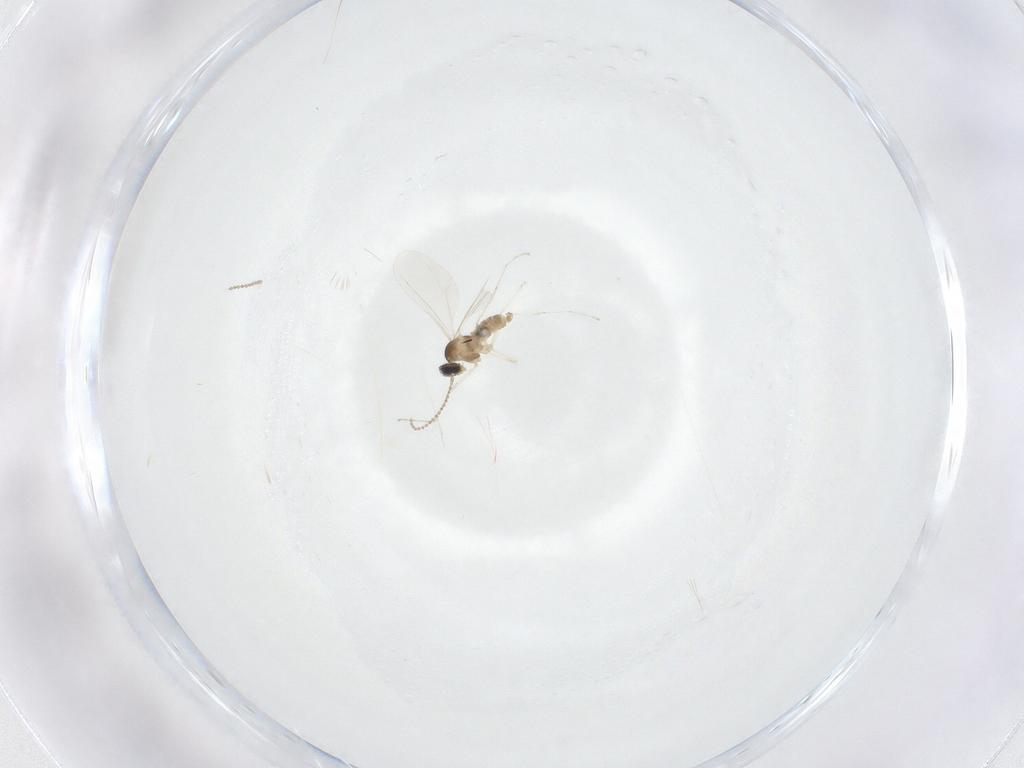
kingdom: Animalia
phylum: Arthropoda
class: Insecta
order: Diptera
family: Cecidomyiidae
